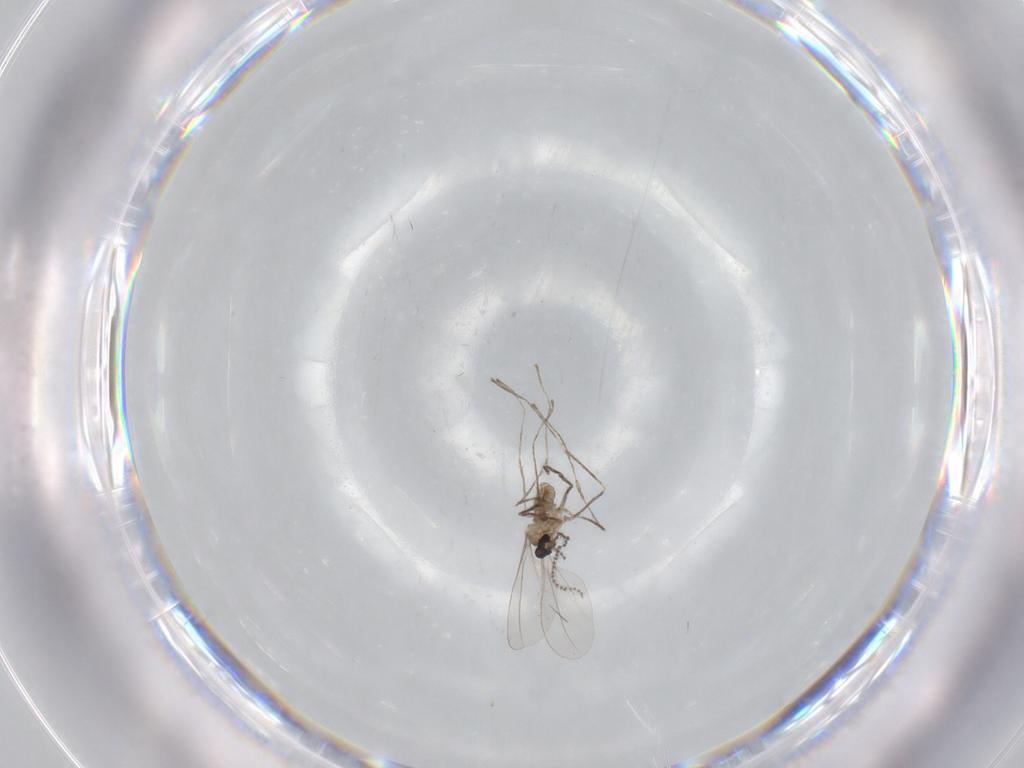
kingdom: Animalia
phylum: Arthropoda
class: Insecta
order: Diptera
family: Cecidomyiidae
